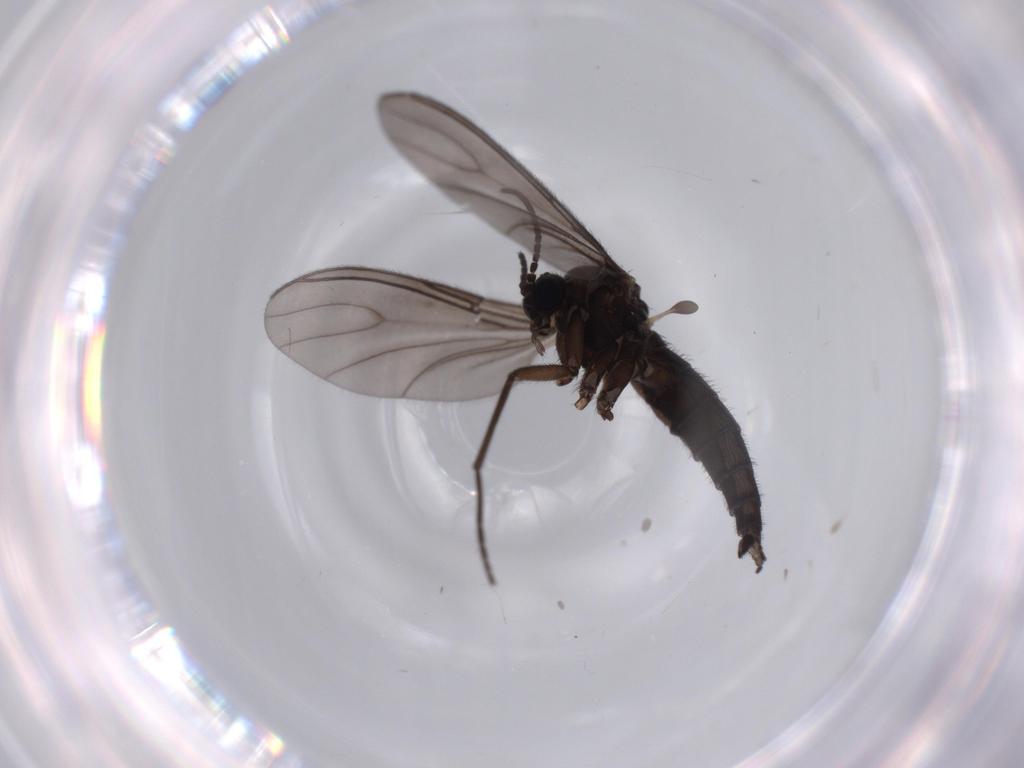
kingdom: Animalia
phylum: Arthropoda
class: Insecta
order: Diptera
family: Sciaridae
